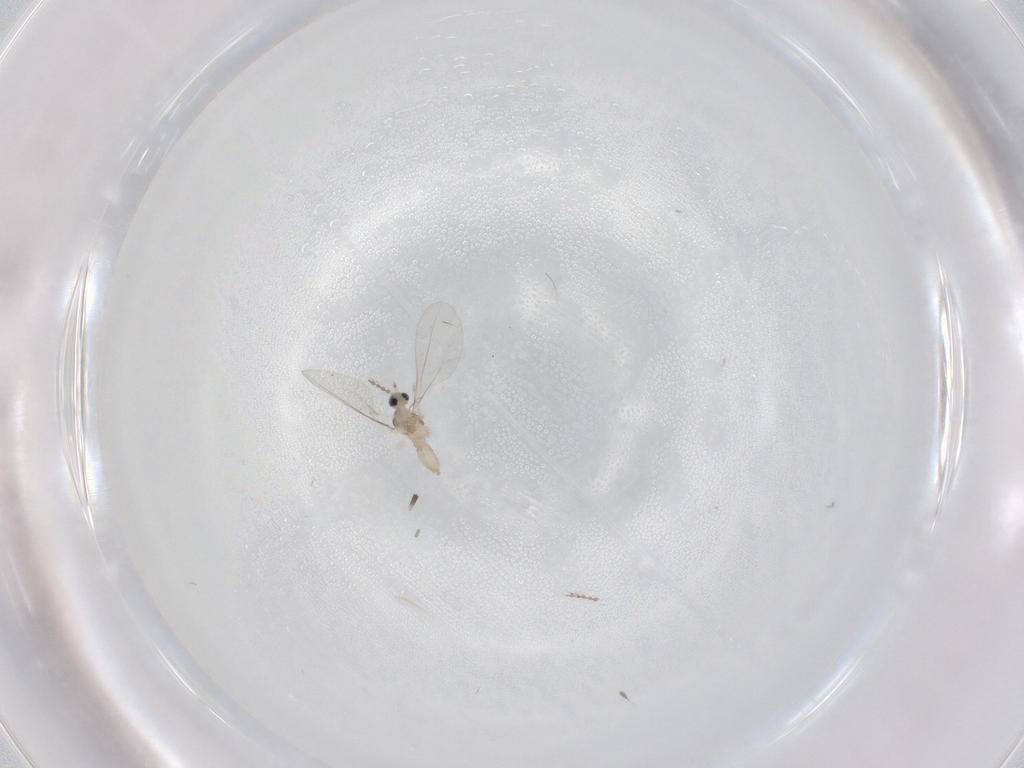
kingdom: Animalia
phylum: Arthropoda
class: Insecta
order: Diptera
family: Cecidomyiidae
